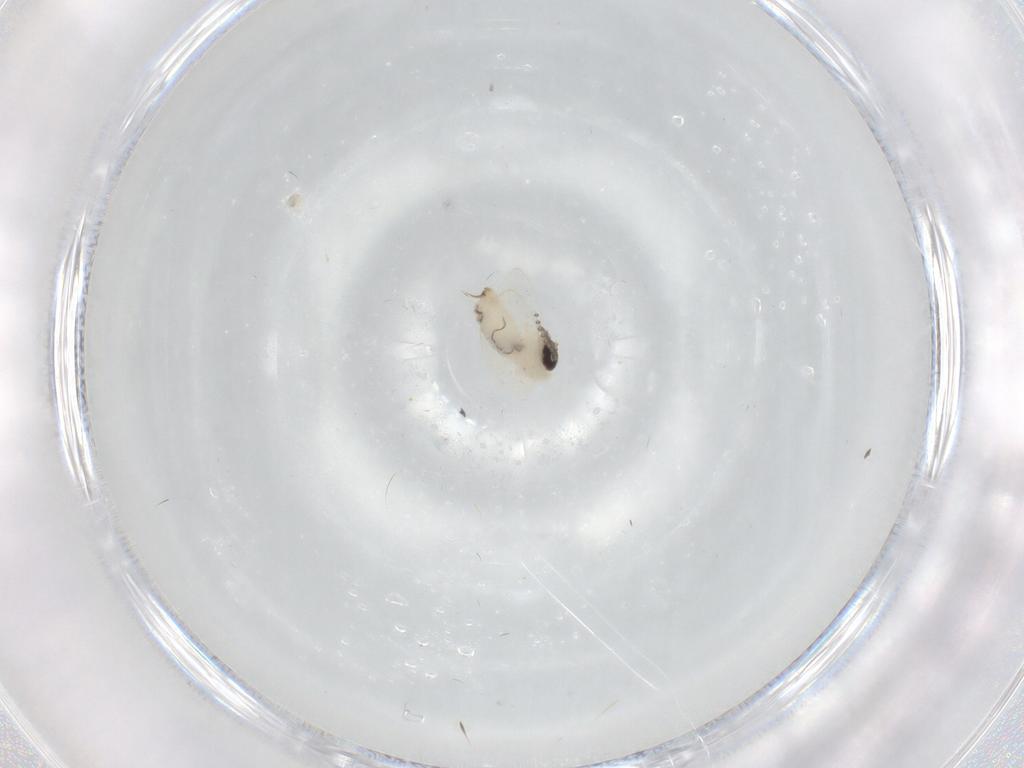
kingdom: Animalia
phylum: Arthropoda
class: Insecta
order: Diptera
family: Psychodidae
